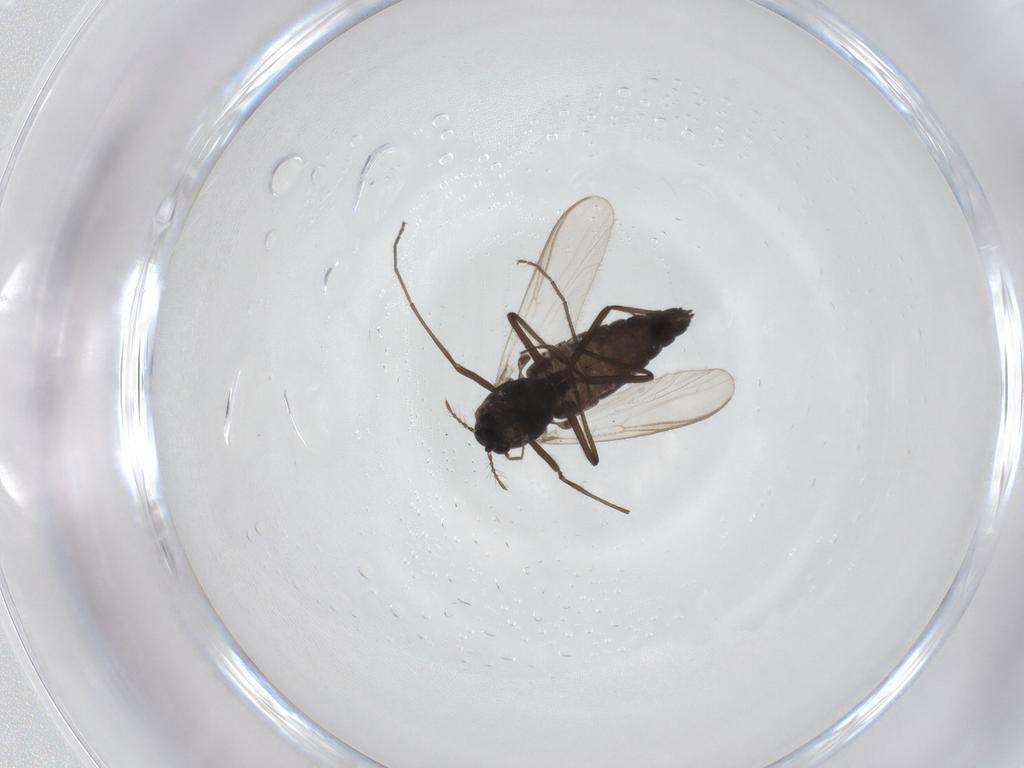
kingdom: Animalia
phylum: Arthropoda
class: Insecta
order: Diptera
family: Chironomidae
